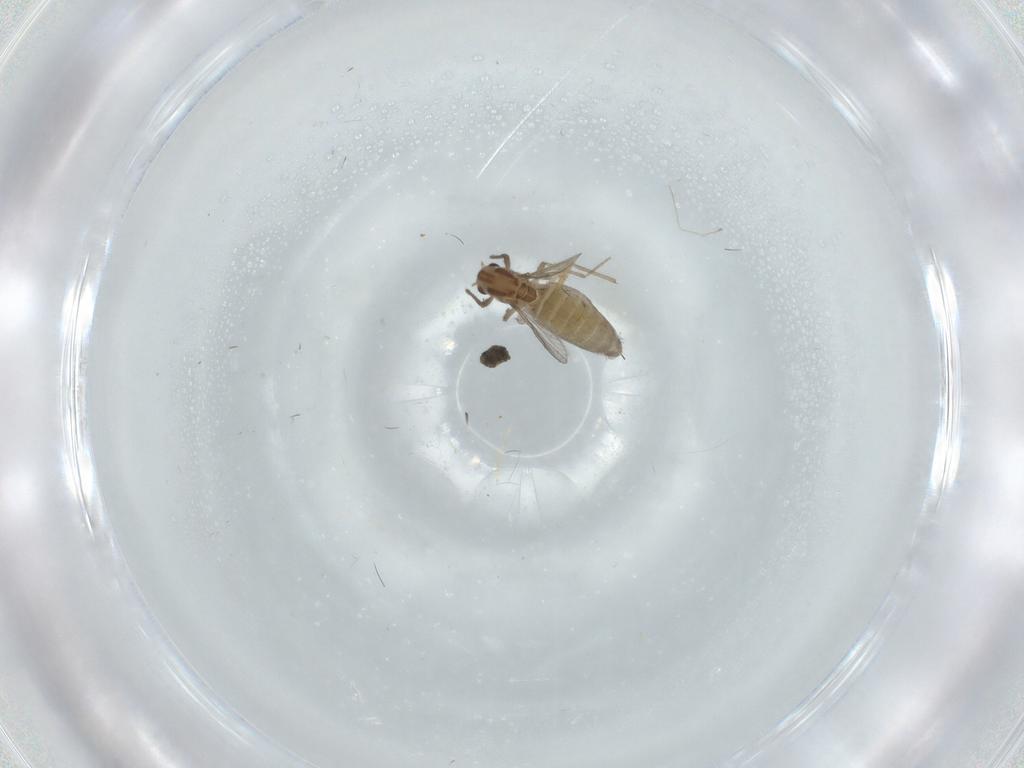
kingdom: Animalia
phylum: Arthropoda
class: Insecta
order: Diptera
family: Chironomidae
